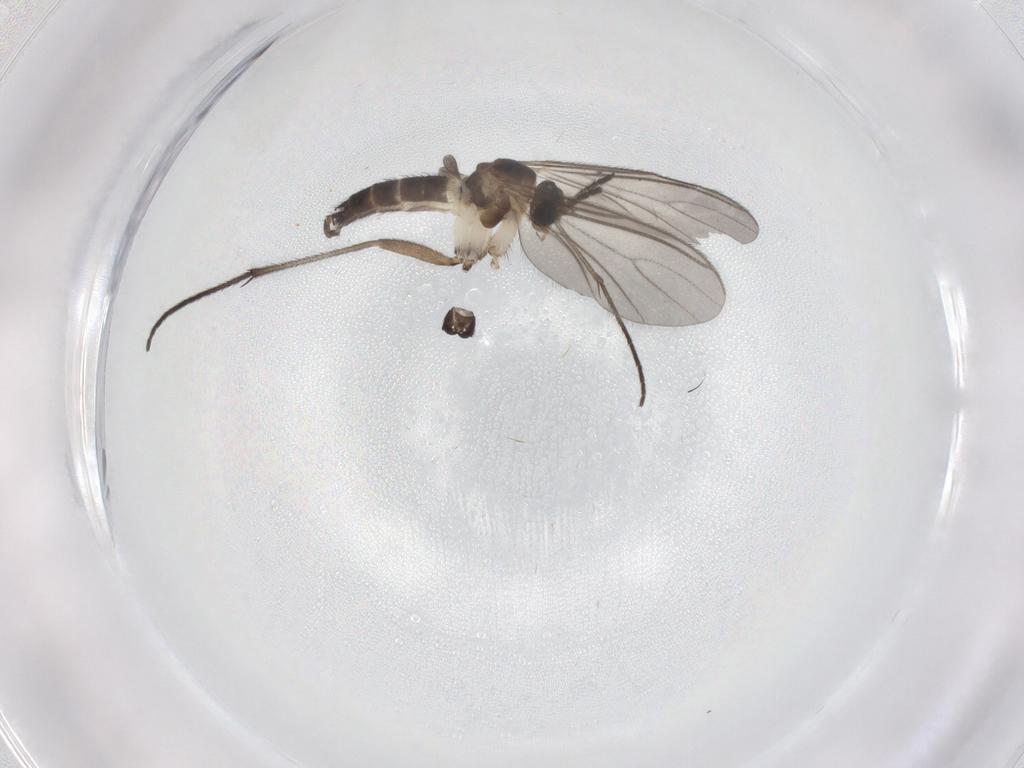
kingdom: Animalia
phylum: Arthropoda
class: Insecta
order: Diptera
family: Sciaridae
